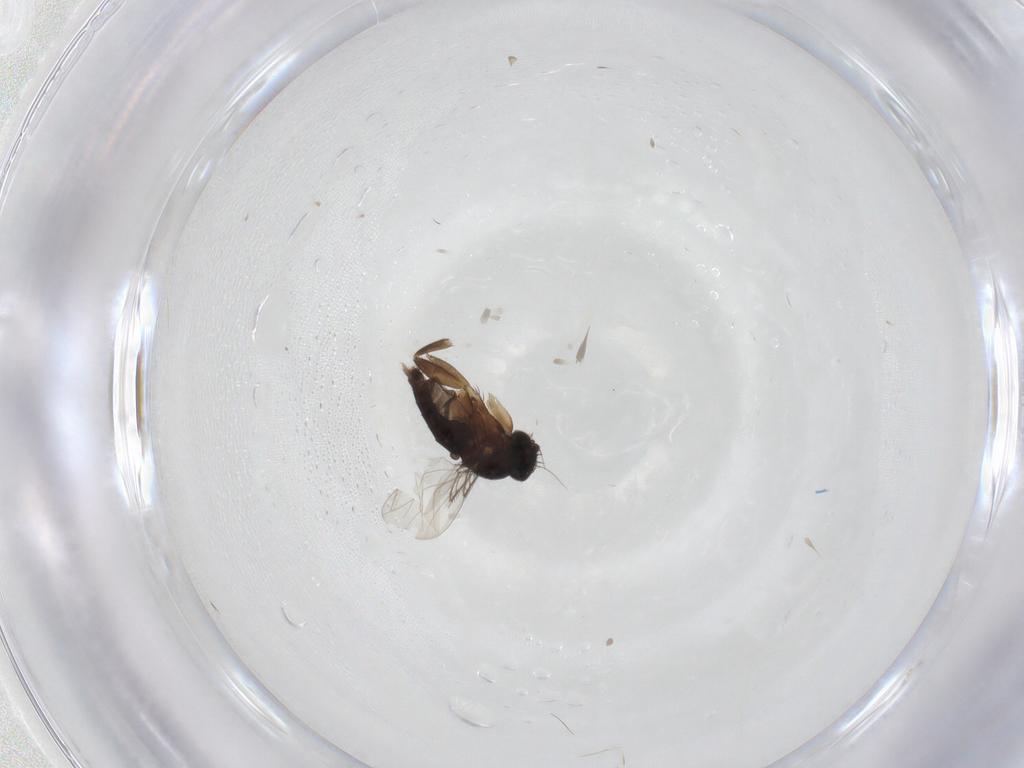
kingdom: Animalia
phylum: Arthropoda
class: Insecta
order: Diptera
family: Phoridae
